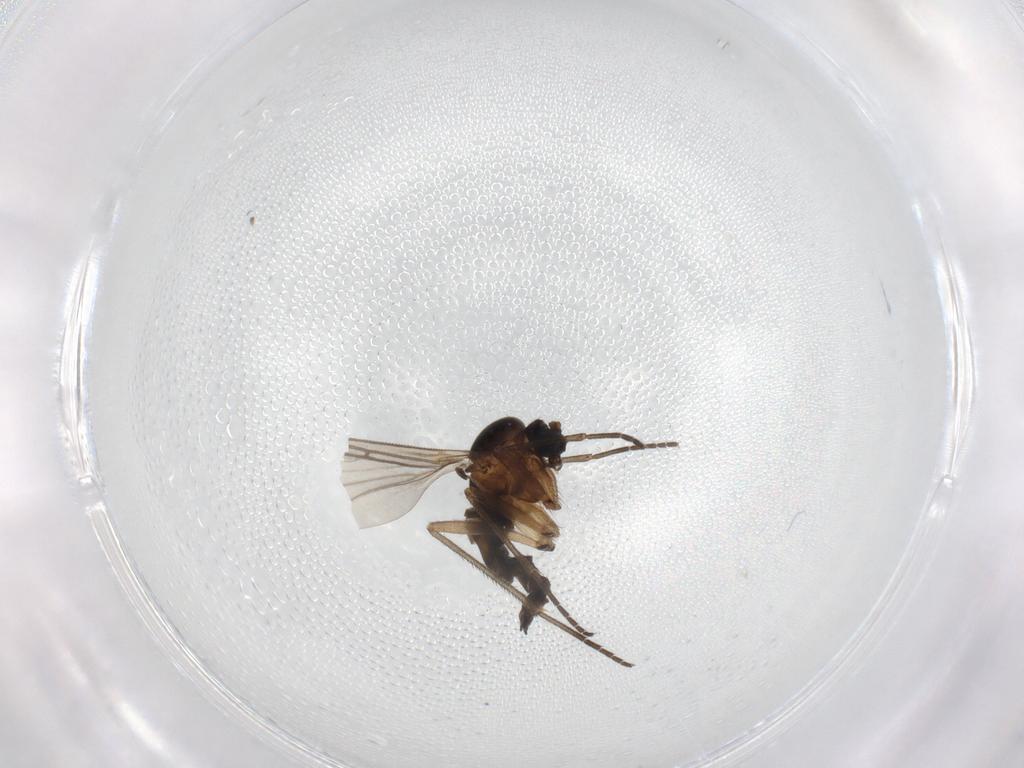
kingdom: Animalia
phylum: Arthropoda
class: Insecta
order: Diptera
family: Sciaridae
